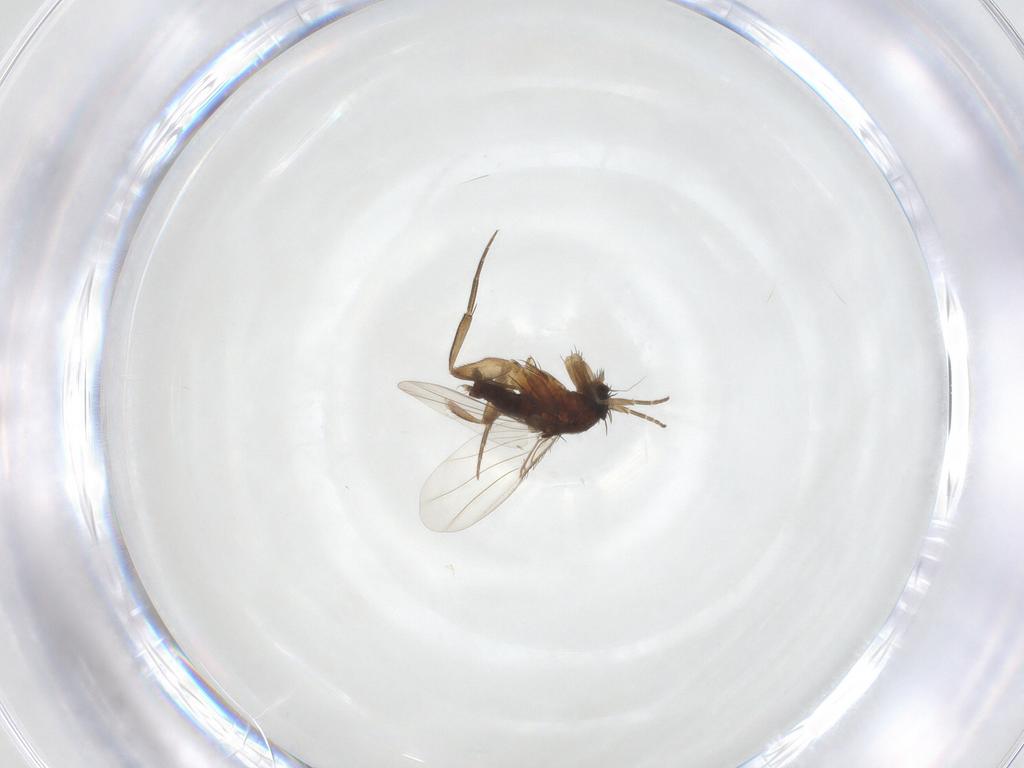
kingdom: Animalia
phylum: Arthropoda
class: Insecta
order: Diptera
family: Phoridae
